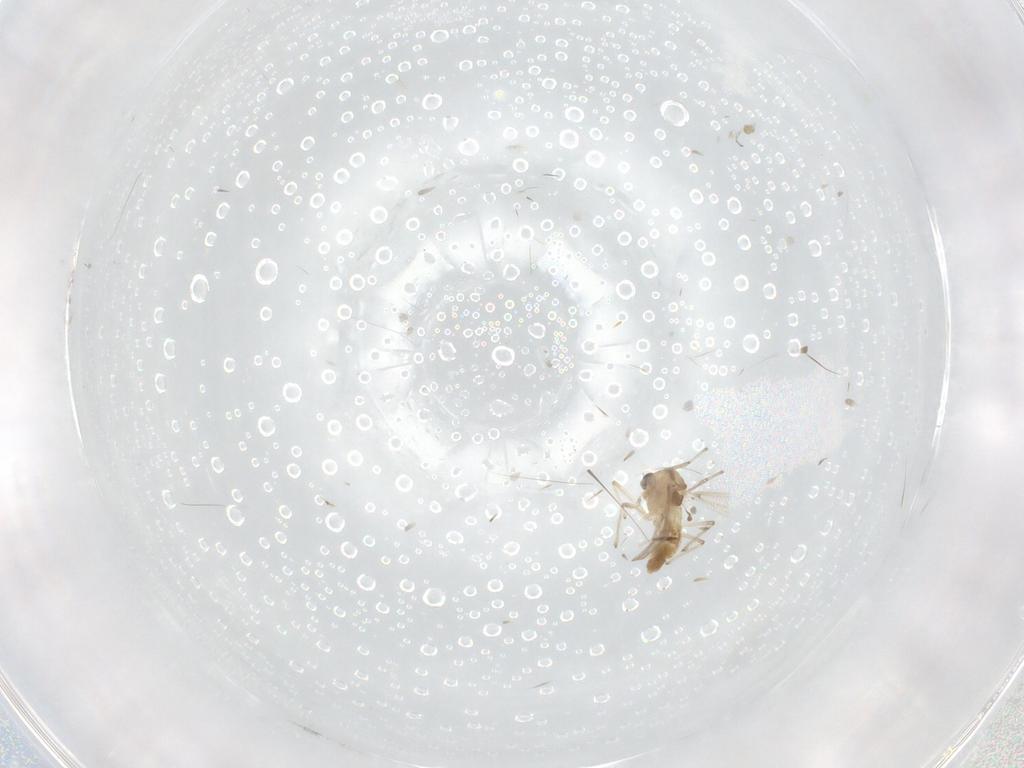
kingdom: Animalia
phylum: Arthropoda
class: Insecta
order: Diptera
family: Chironomidae
